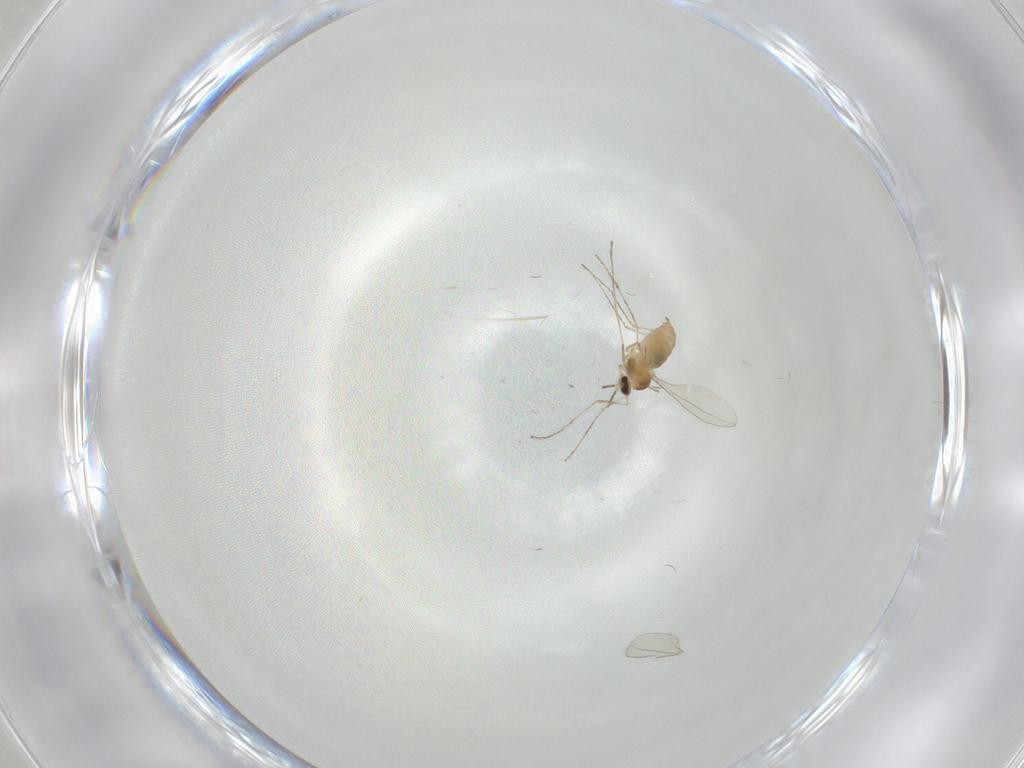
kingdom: Animalia
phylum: Arthropoda
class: Insecta
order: Diptera
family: Cecidomyiidae
